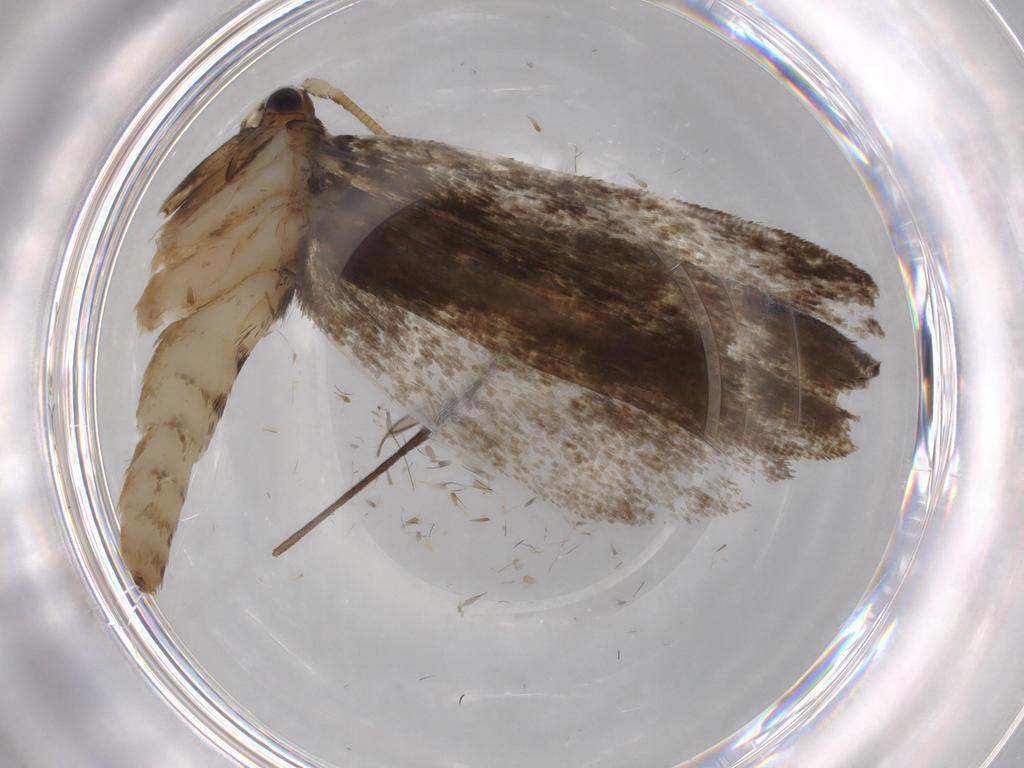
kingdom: Animalia
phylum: Arthropoda
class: Insecta
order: Lepidoptera
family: Tineidae
